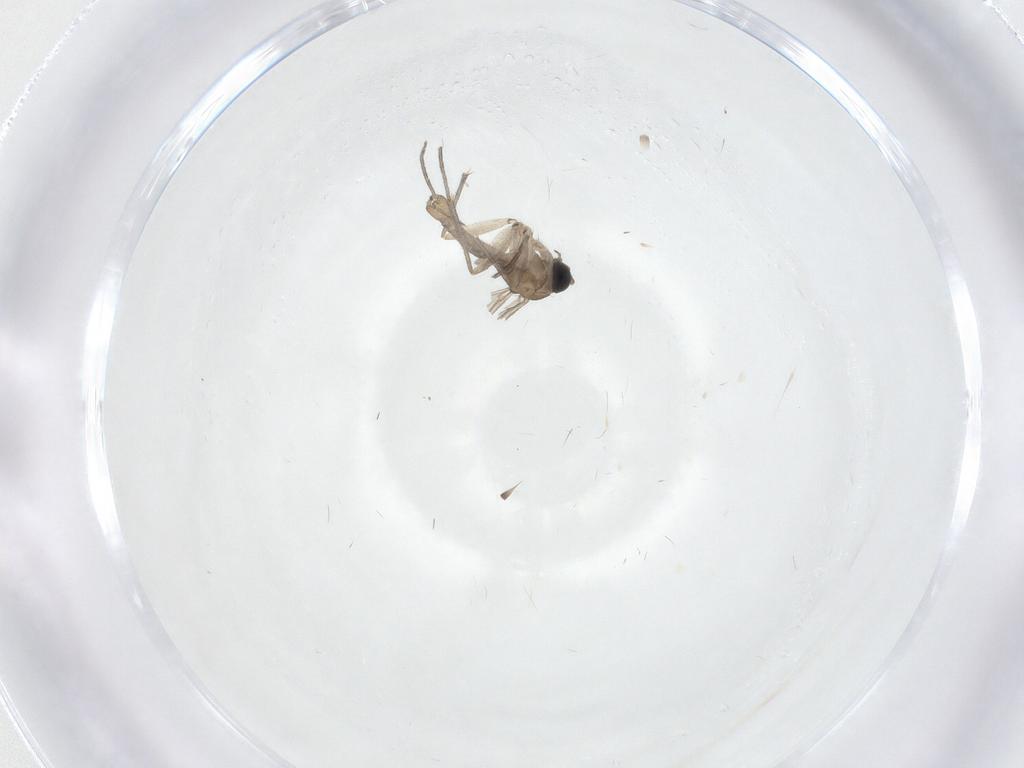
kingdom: Animalia
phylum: Arthropoda
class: Insecta
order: Diptera
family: Sciaridae
